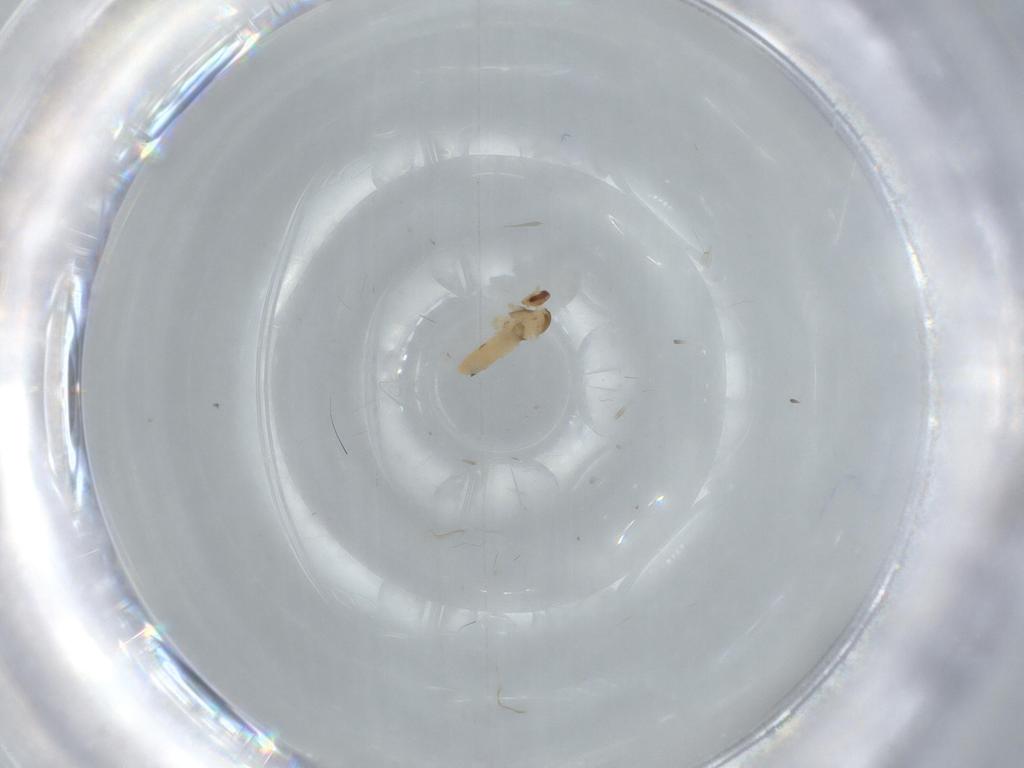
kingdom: Animalia
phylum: Arthropoda
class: Insecta
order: Diptera
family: Cecidomyiidae
